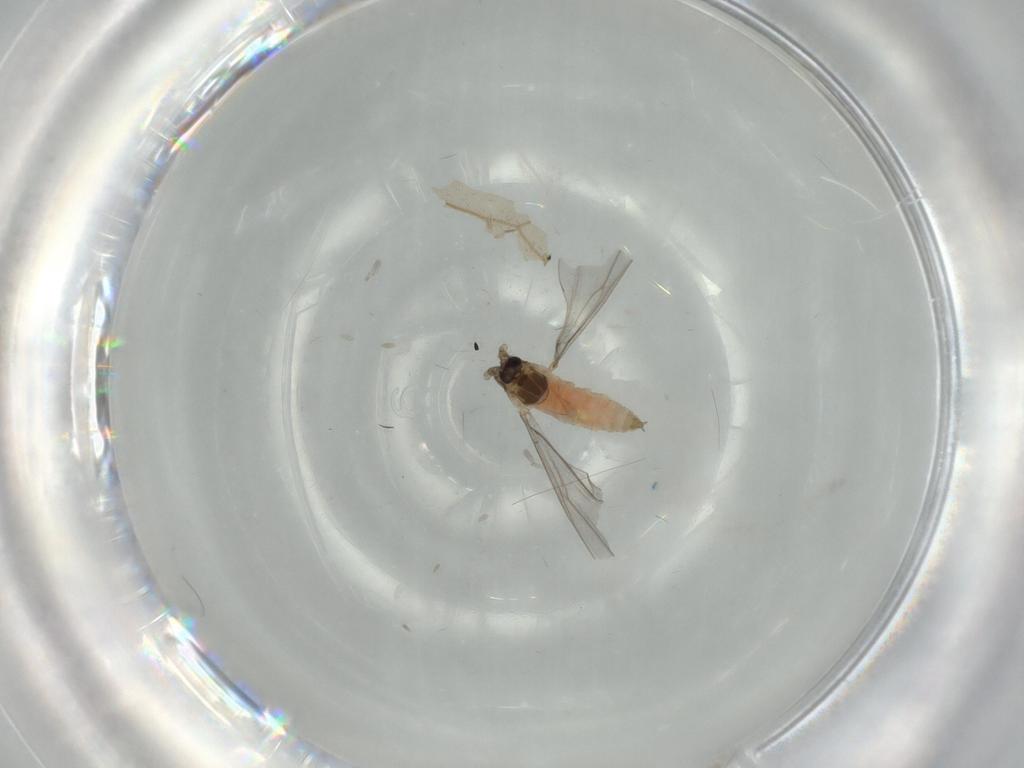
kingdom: Animalia
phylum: Arthropoda
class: Insecta
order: Diptera
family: Cecidomyiidae
